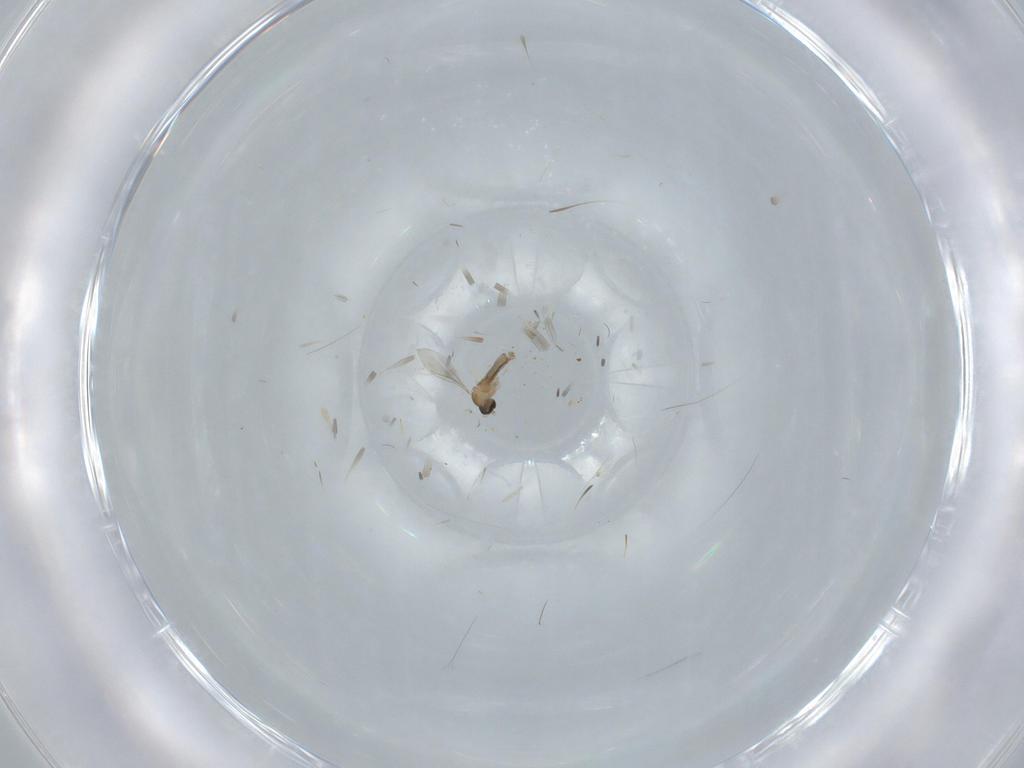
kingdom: Animalia
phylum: Arthropoda
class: Insecta
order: Diptera
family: Cecidomyiidae
